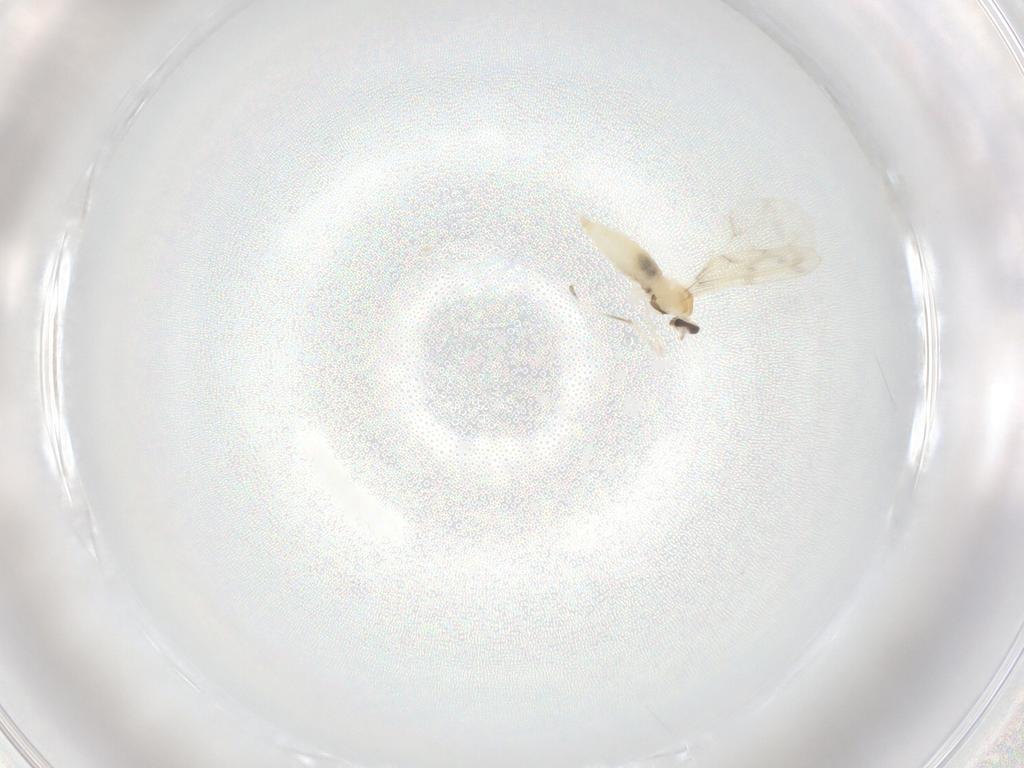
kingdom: Animalia
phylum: Arthropoda
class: Insecta
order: Diptera
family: Cecidomyiidae
